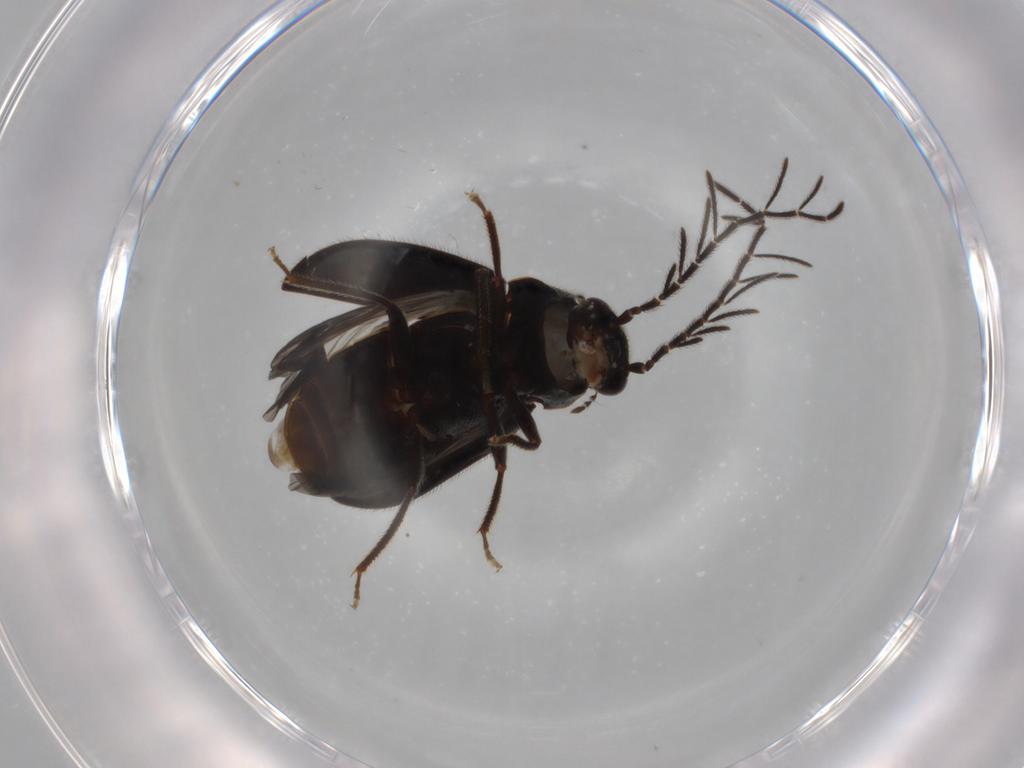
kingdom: Animalia
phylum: Arthropoda
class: Insecta
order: Coleoptera
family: Ptilodactylidae
